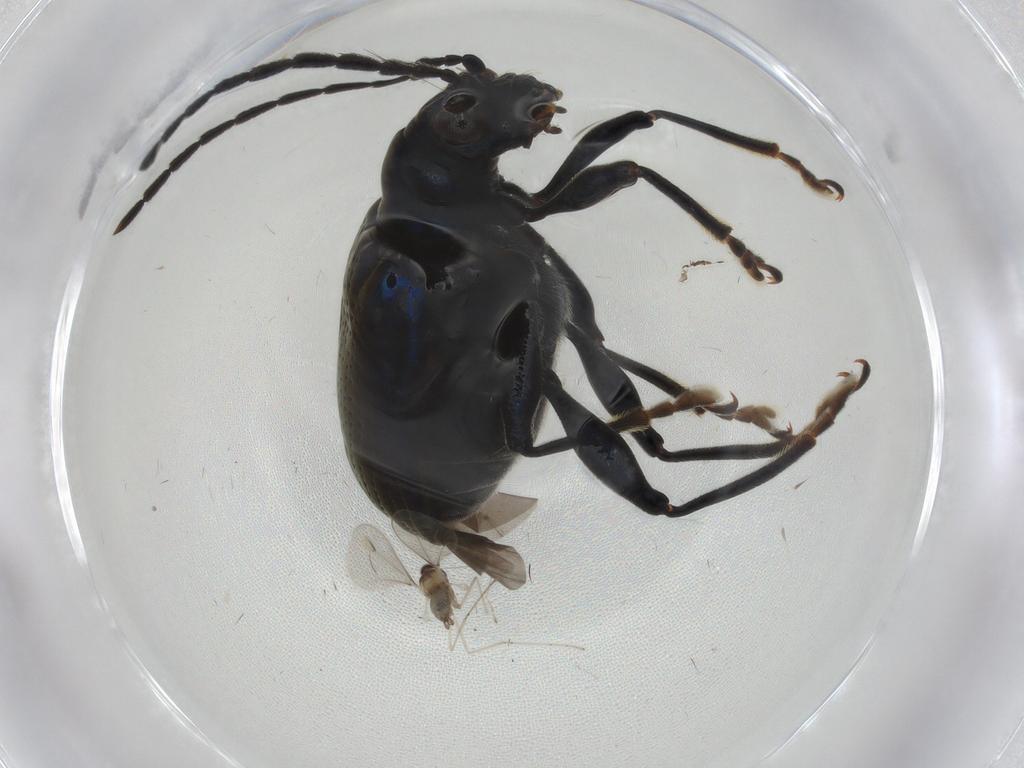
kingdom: Animalia
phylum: Arthropoda
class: Insecta
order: Coleoptera
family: Chrysomelidae
